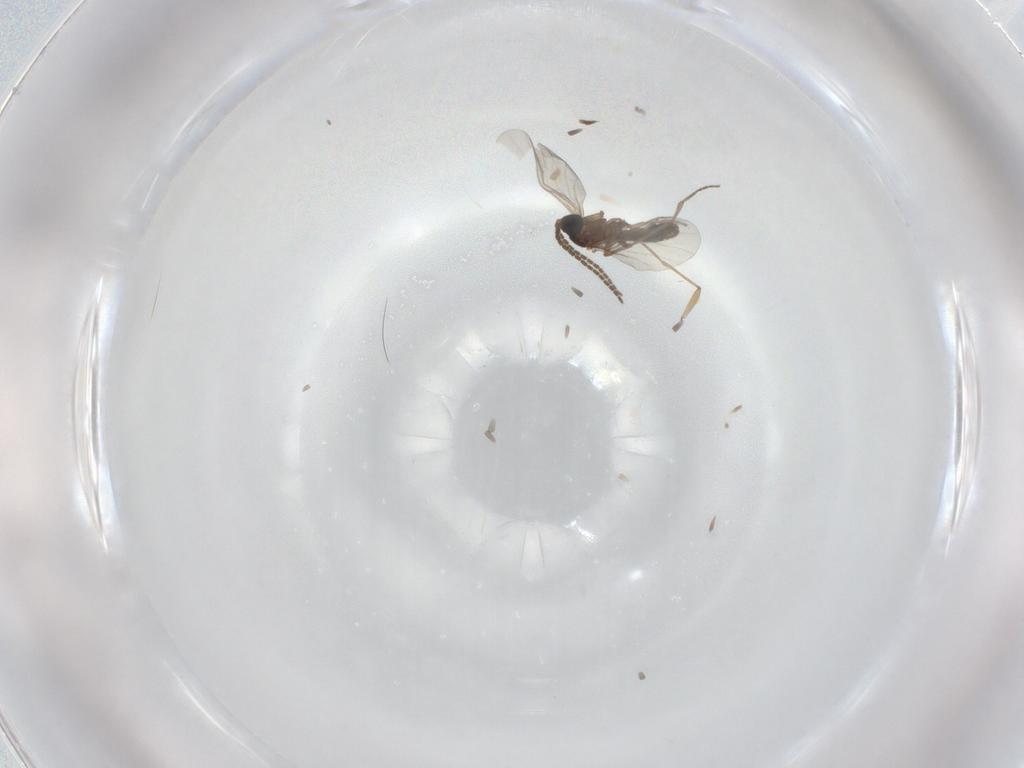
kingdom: Animalia
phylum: Arthropoda
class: Insecta
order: Diptera
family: Sciaridae
